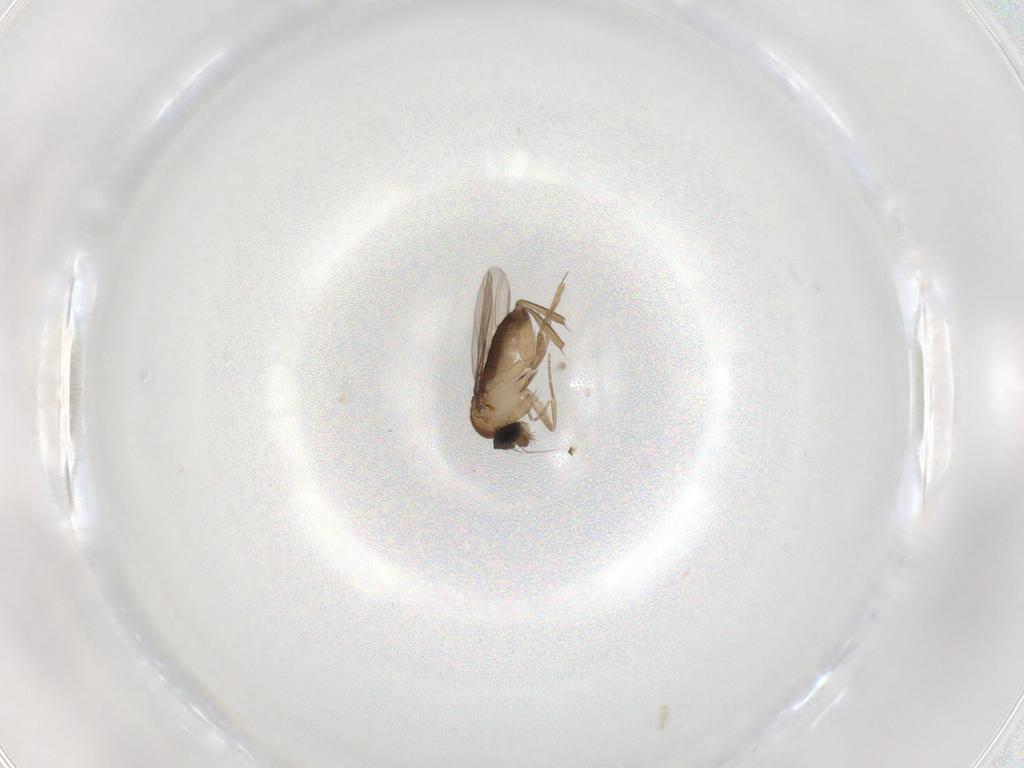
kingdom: Animalia
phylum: Arthropoda
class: Insecta
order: Diptera
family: Phoridae
